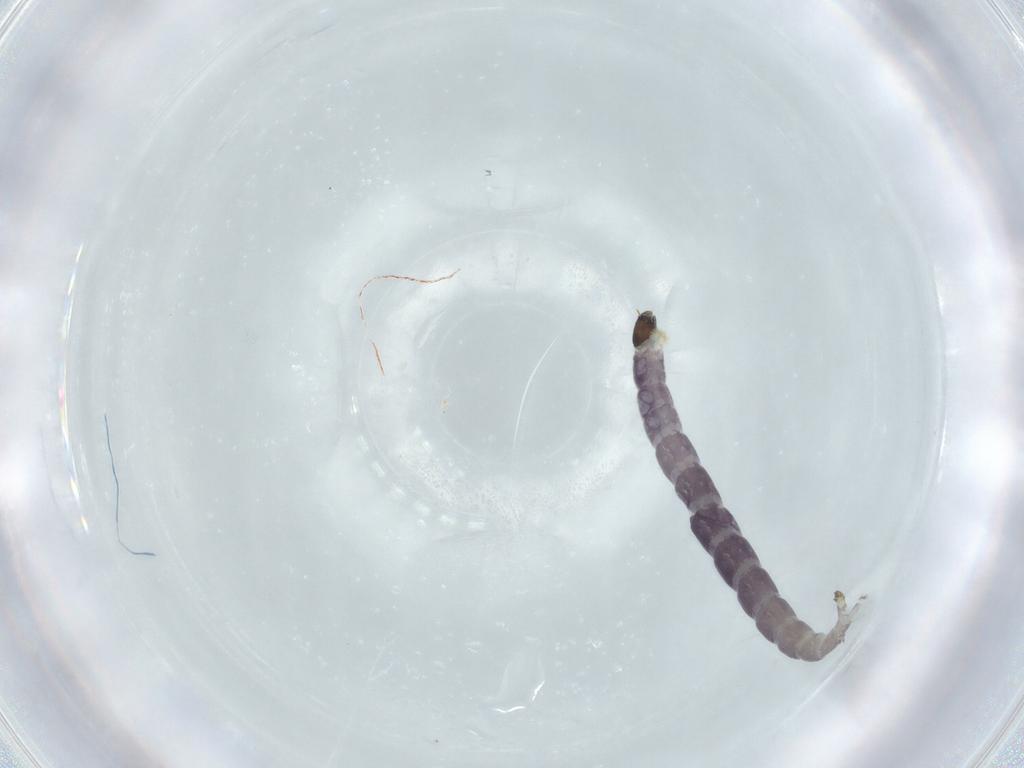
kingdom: Animalia
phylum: Arthropoda
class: Insecta
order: Diptera
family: Chironomidae
